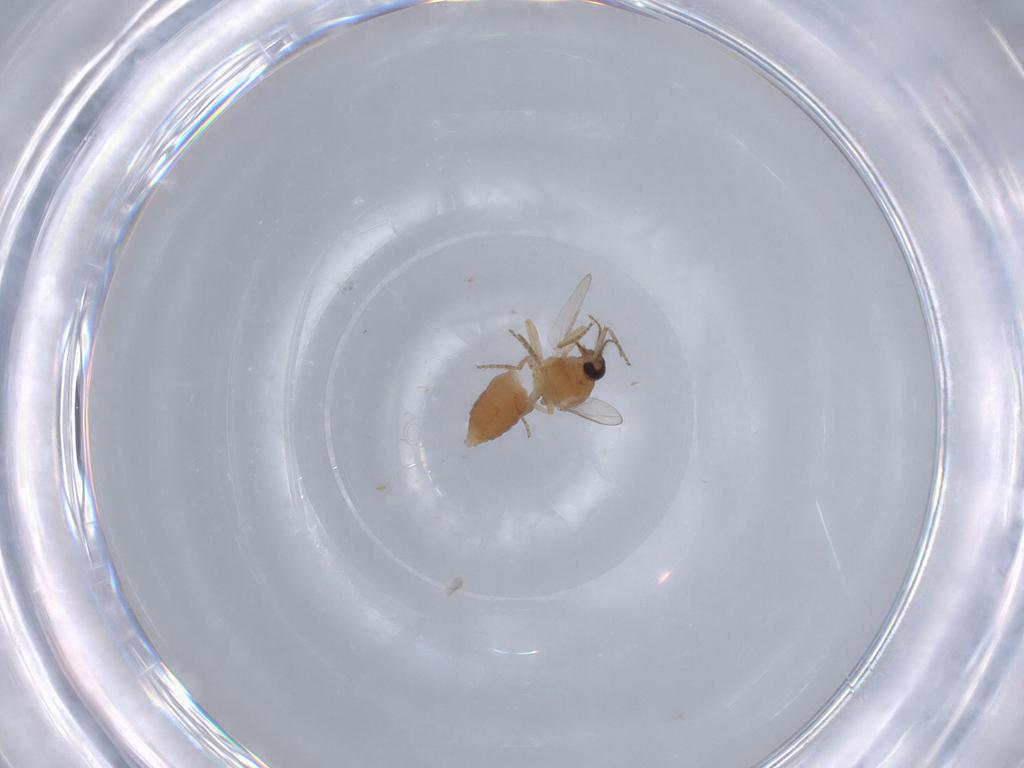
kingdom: Animalia
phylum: Arthropoda
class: Insecta
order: Diptera
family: Ceratopogonidae
